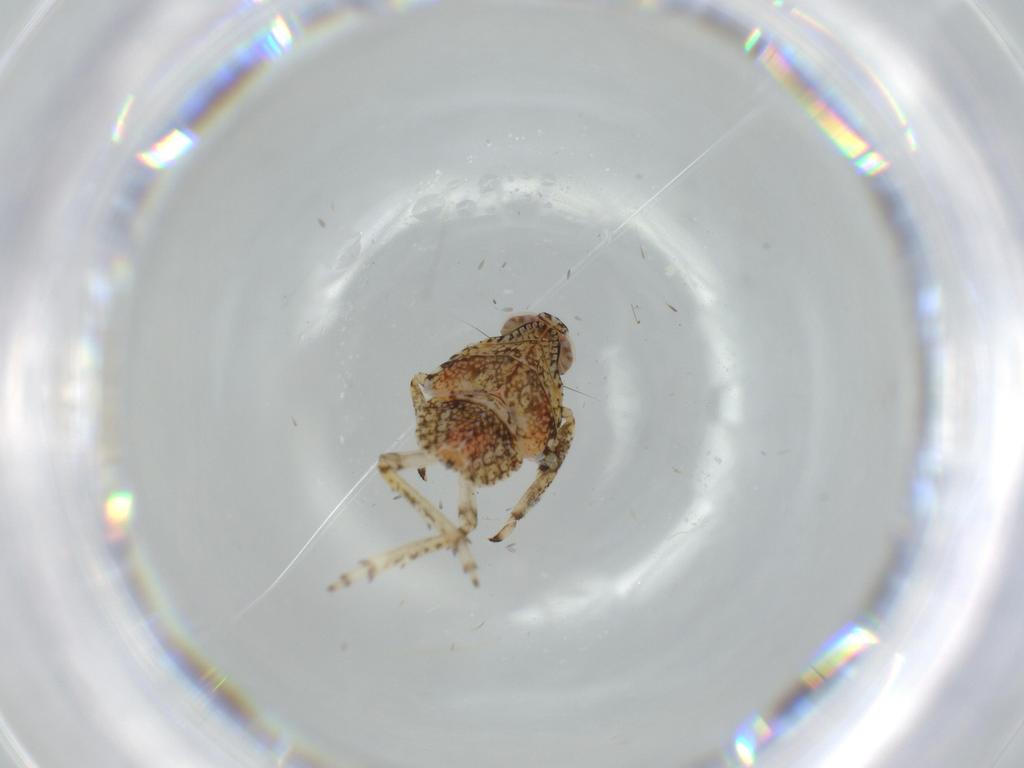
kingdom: Animalia
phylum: Arthropoda
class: Insecta
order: Hemiptera
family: Issidae
